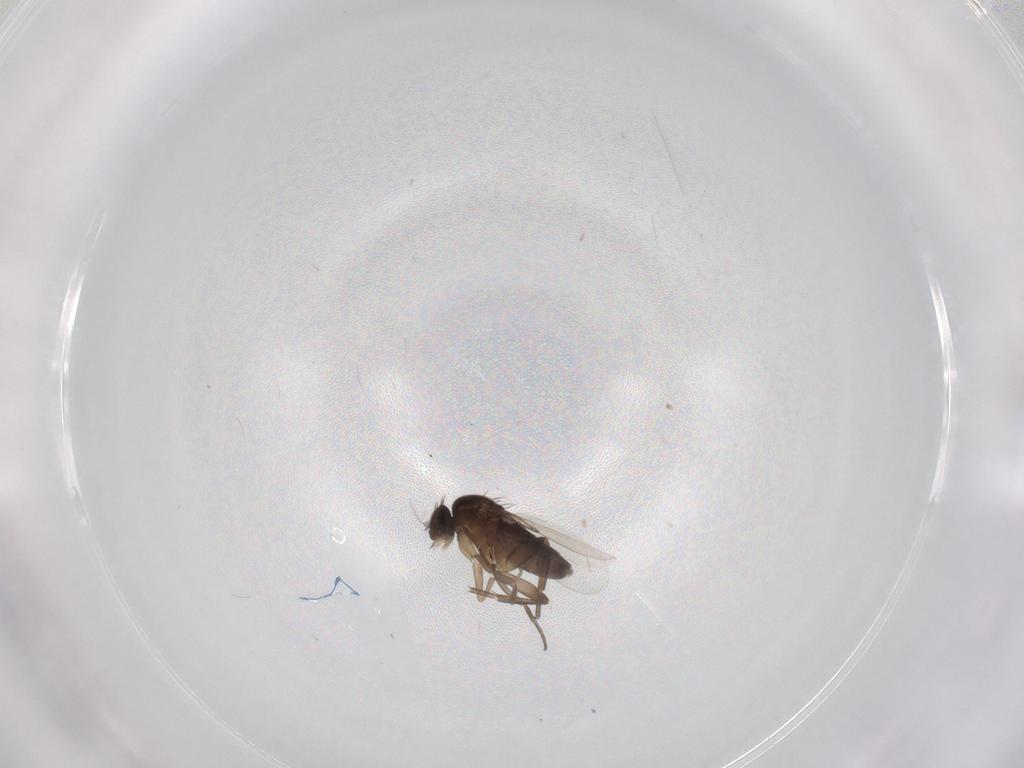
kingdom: Animalia
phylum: Arthropoda
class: Insecta
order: Diptera
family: Phoridae
